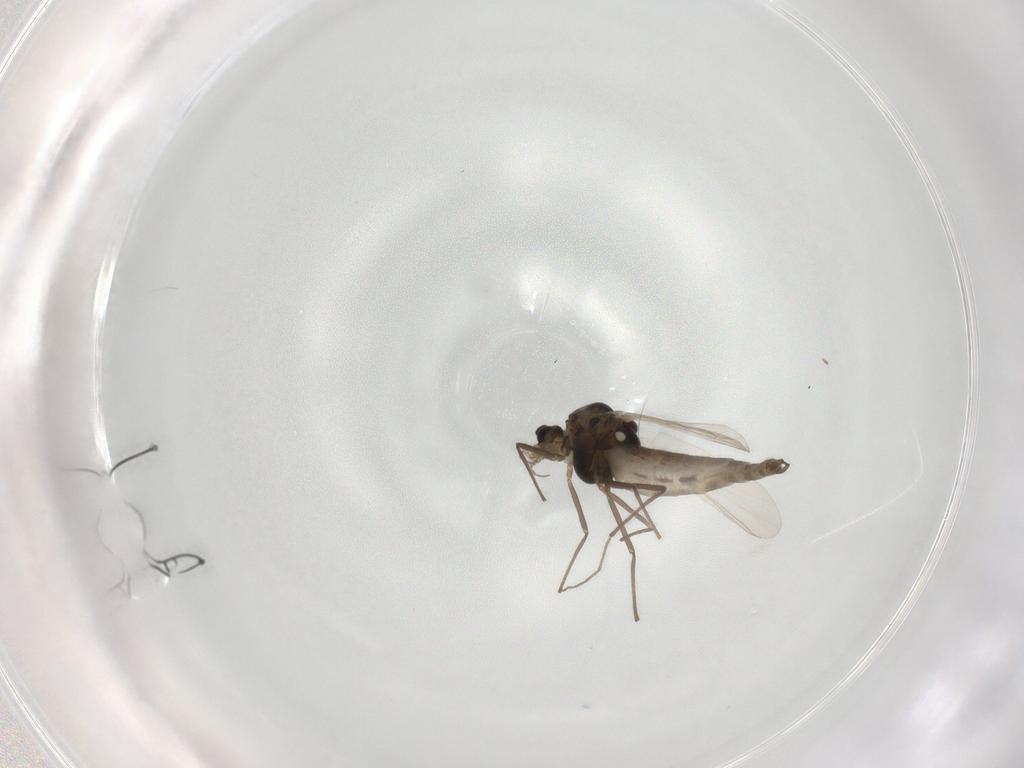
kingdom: Animalia
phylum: Arthropoda
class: Insecta
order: Diptera
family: Chironomidae
